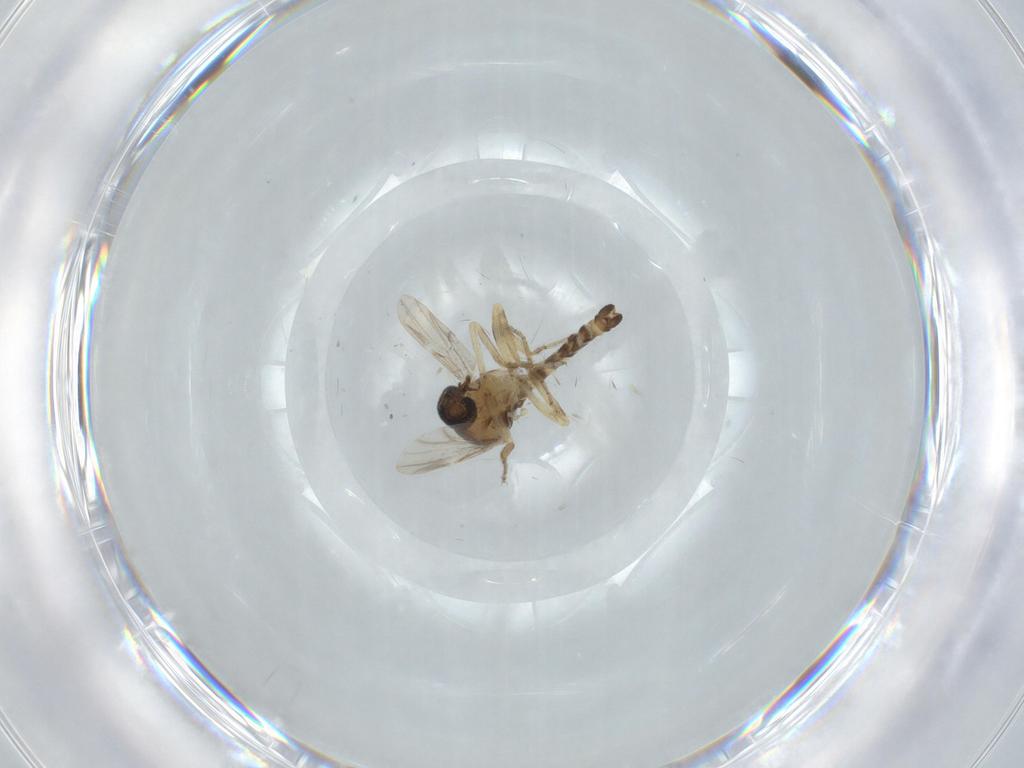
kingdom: Animalia
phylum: Arthropoda
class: Insecta
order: Diptera
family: Ceratopogonidae
